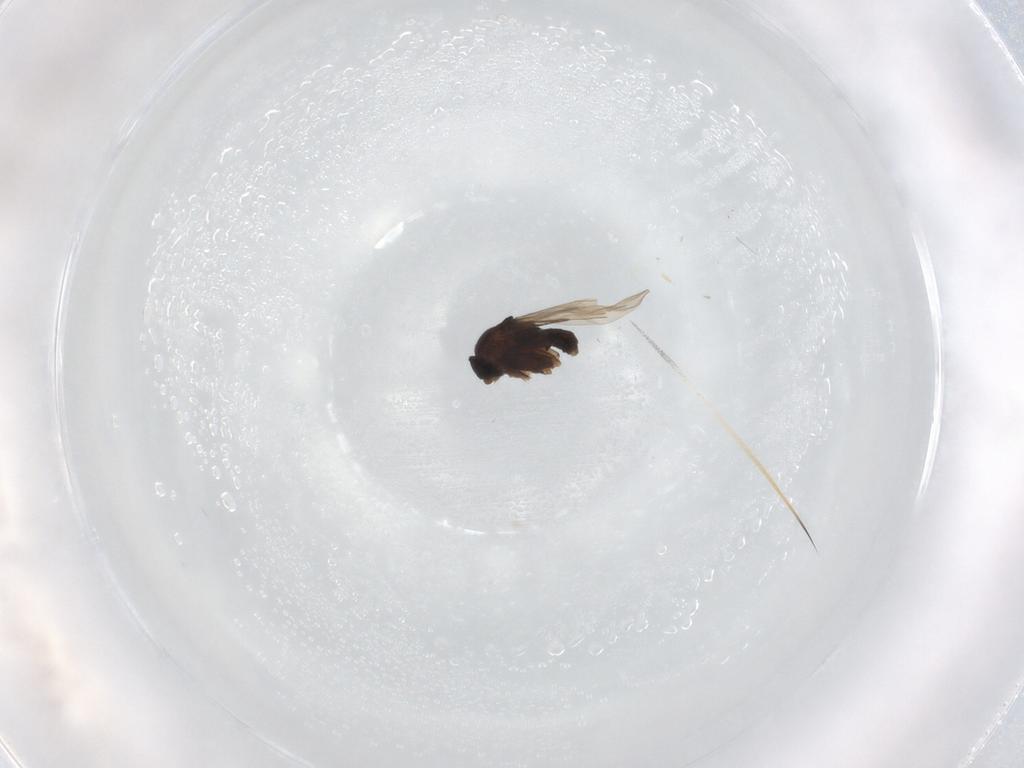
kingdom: Animalia
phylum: Arthropoda
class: Insecta
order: Diptera
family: Phoridae
